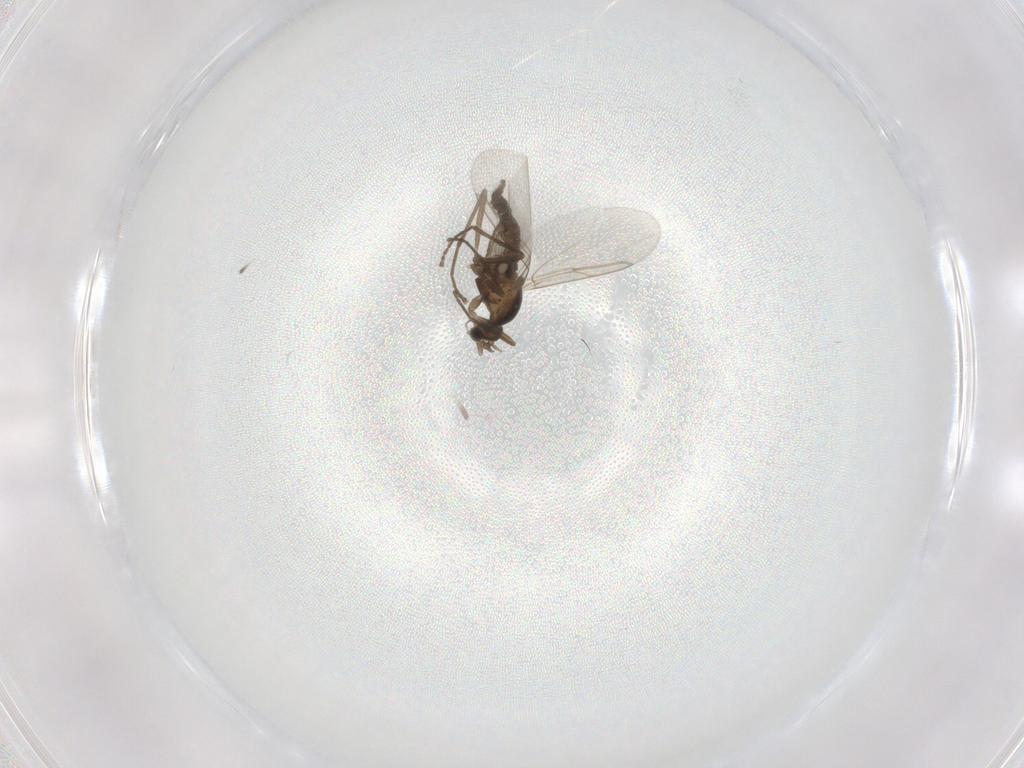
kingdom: Animalia
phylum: Arthropoda
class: Insecta
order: Diptera
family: Cecidomyiidae
